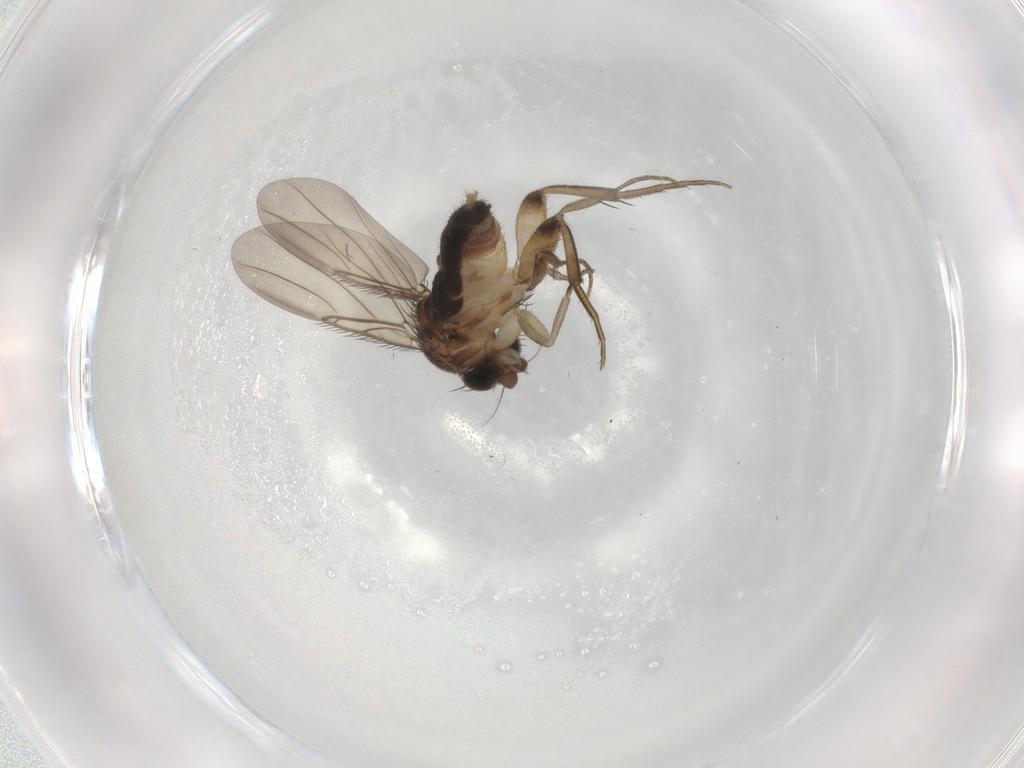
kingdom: Animalia
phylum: Arthropoda
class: Insecta
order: Diptera
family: Agromyzidae
